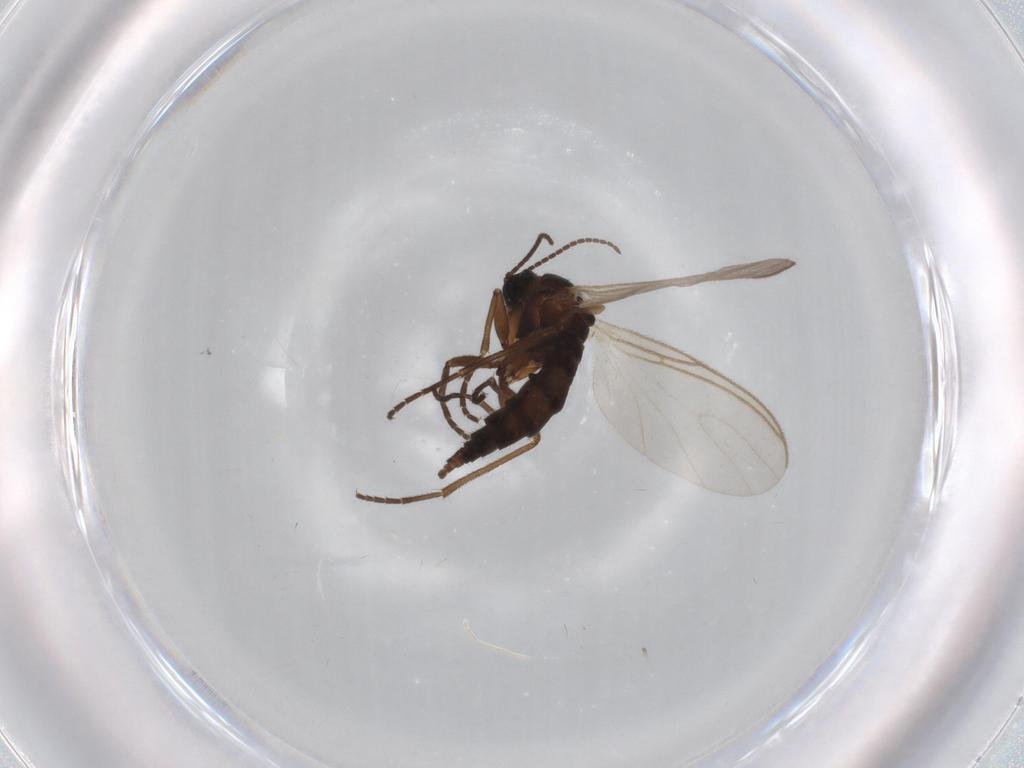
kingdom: Animalia
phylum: Arthropoda
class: Insecta
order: Diptera
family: Sciaridae
